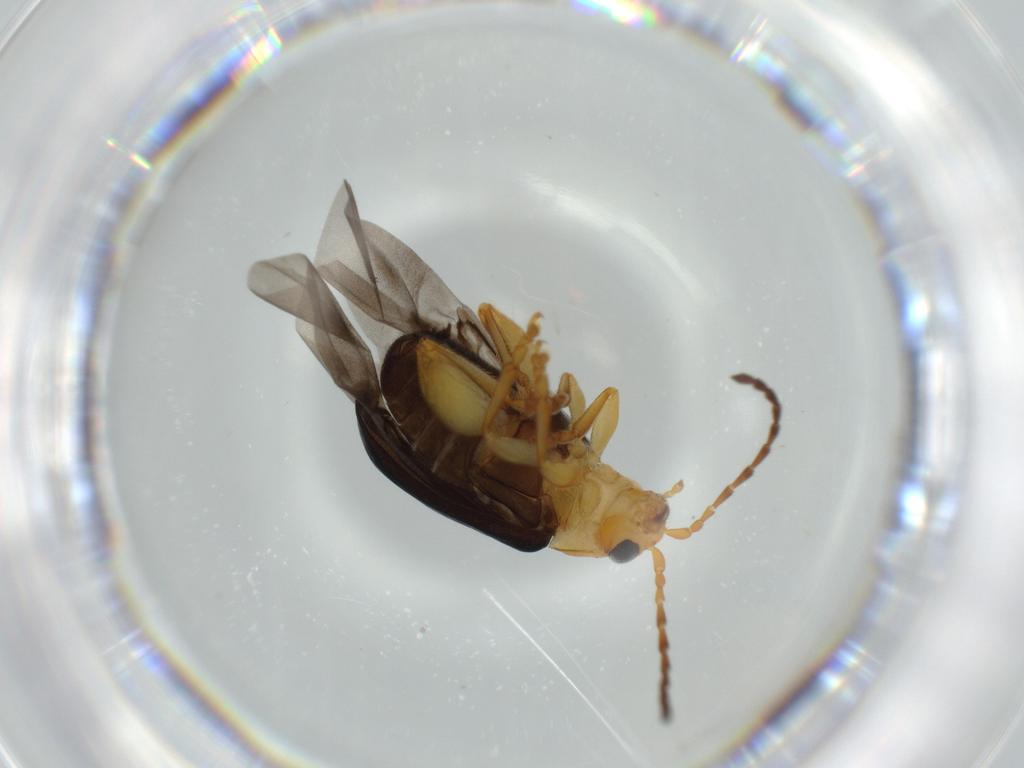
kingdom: Animalia
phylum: Arthropoda
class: Insecta
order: Coleoptera
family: Chrysomelidae
